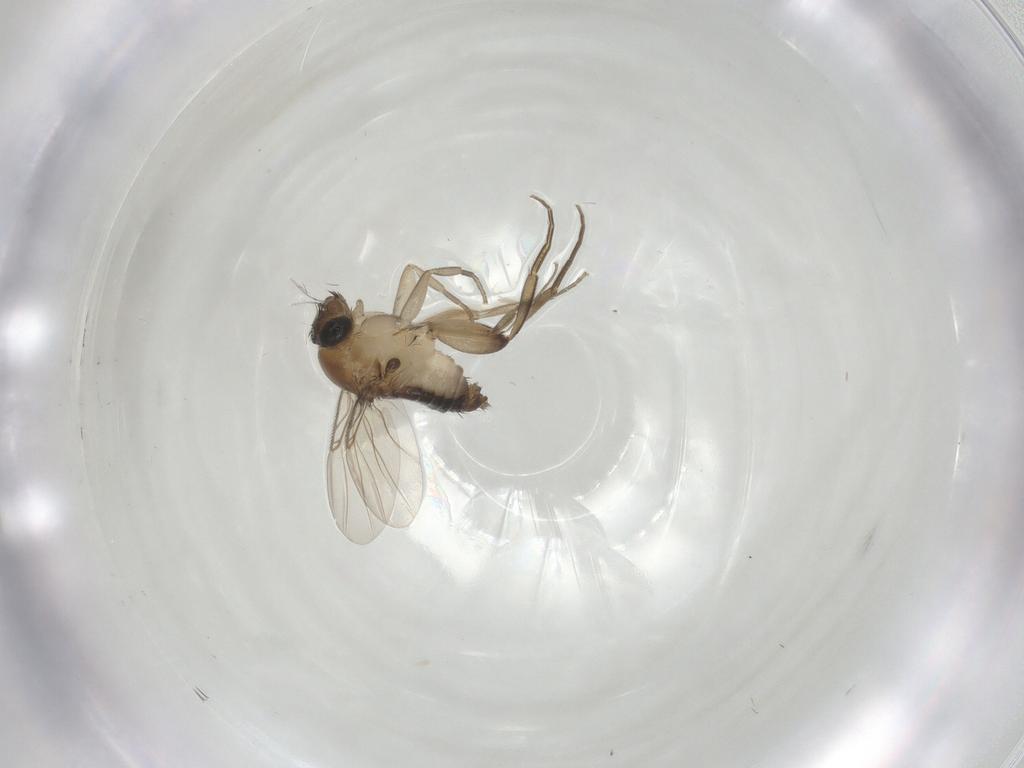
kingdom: Animalia
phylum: Arthropoda
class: Insecta
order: Diptera
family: Phoridae
